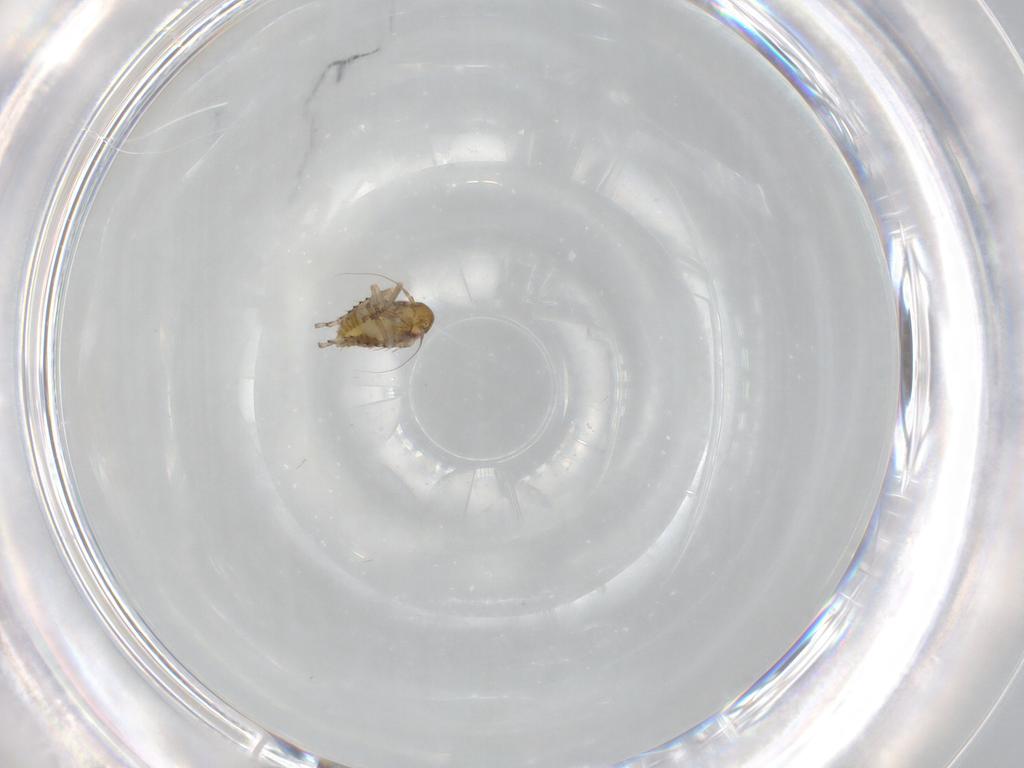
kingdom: Animalia
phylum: Arthropoda
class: Insecta
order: Hemiptera
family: Cicadellidae
